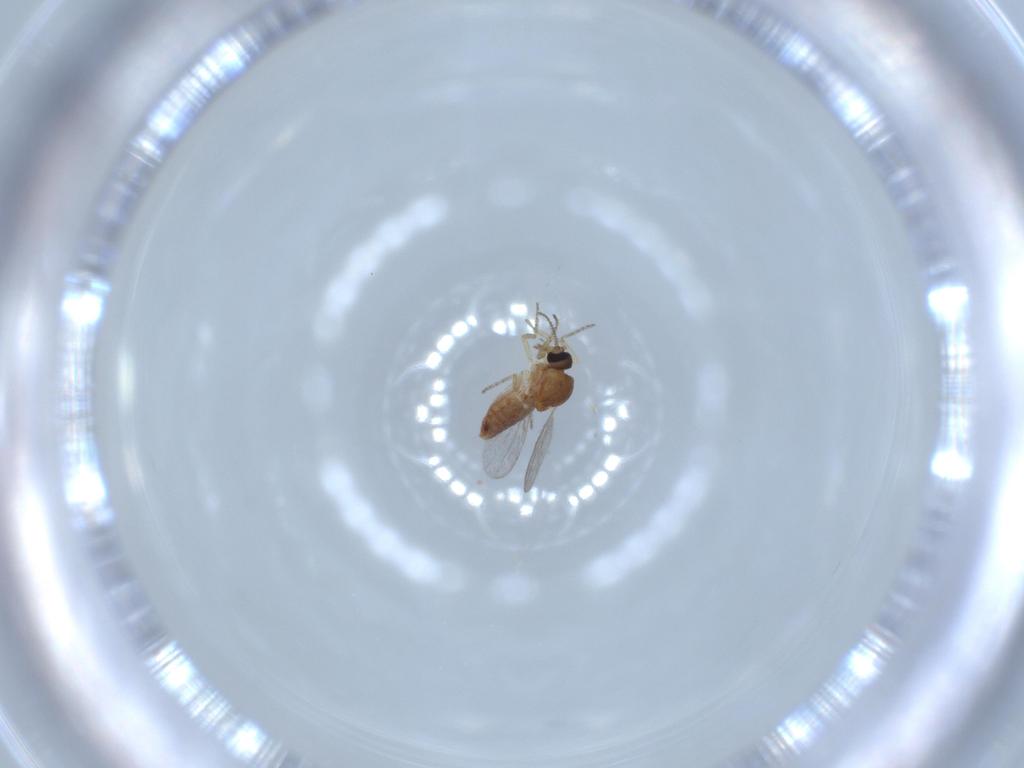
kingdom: Animalia
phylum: Arthropoda
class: Insecta
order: Diptera
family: Ceratopogonidae
